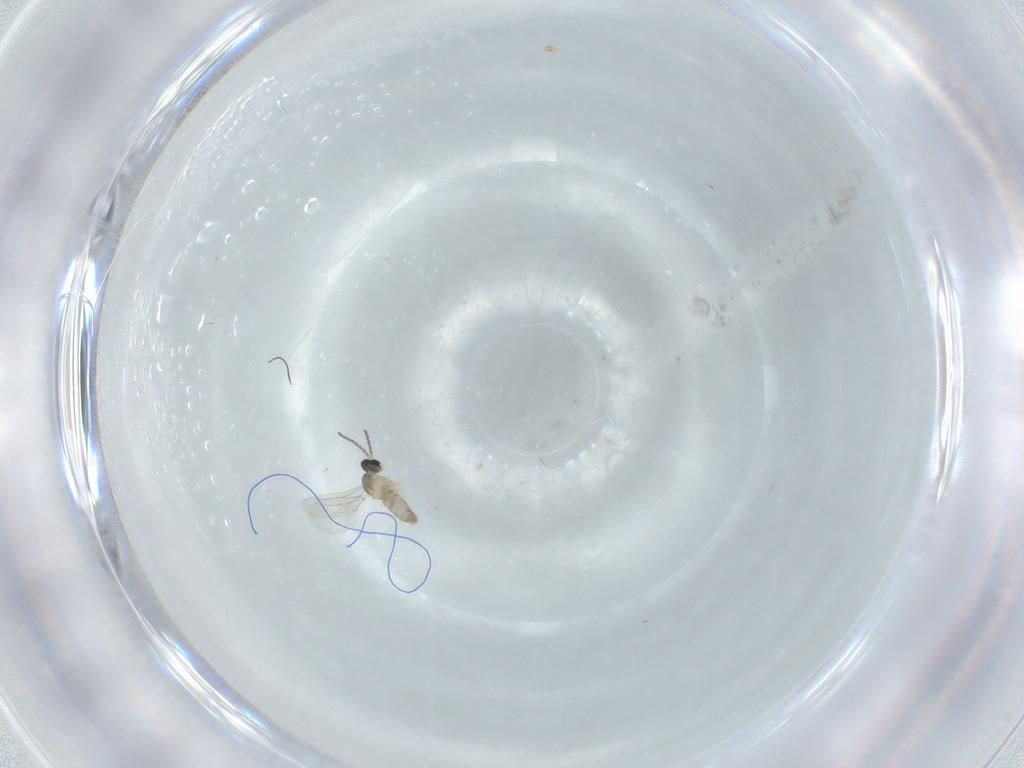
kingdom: Animalia
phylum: Arthropoda
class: Insecta
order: Diptera
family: Cecidomyiidae
